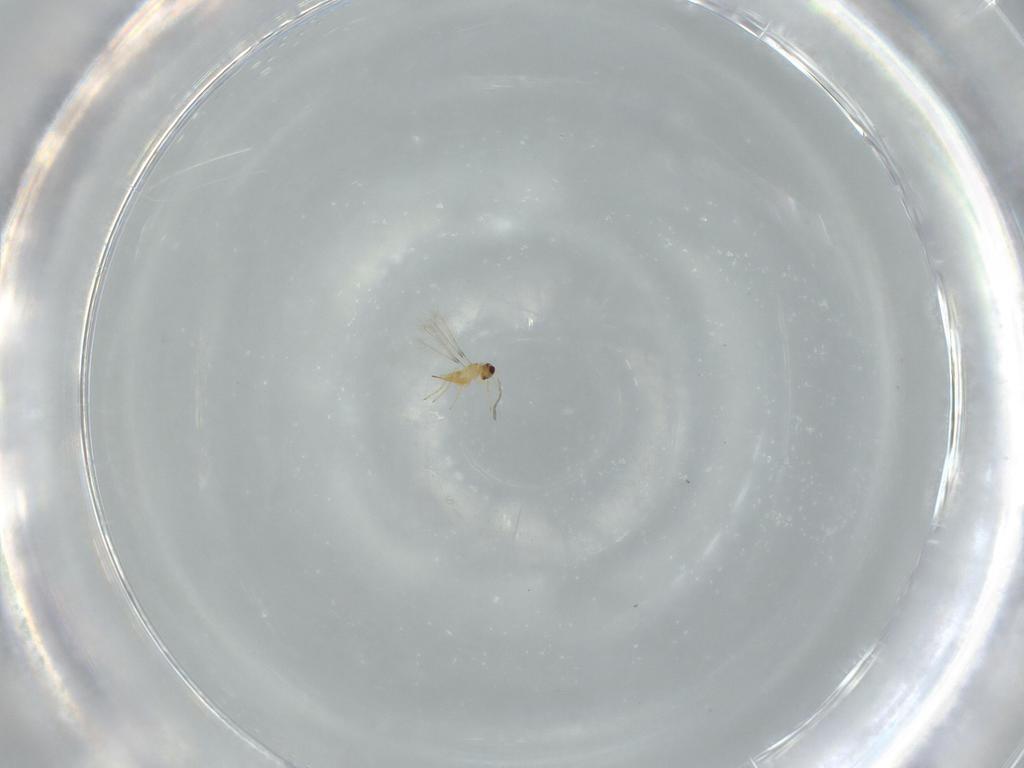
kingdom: Animalia
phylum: Arthropoda
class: Insecta
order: Hymenoptera
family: Mymaridae
